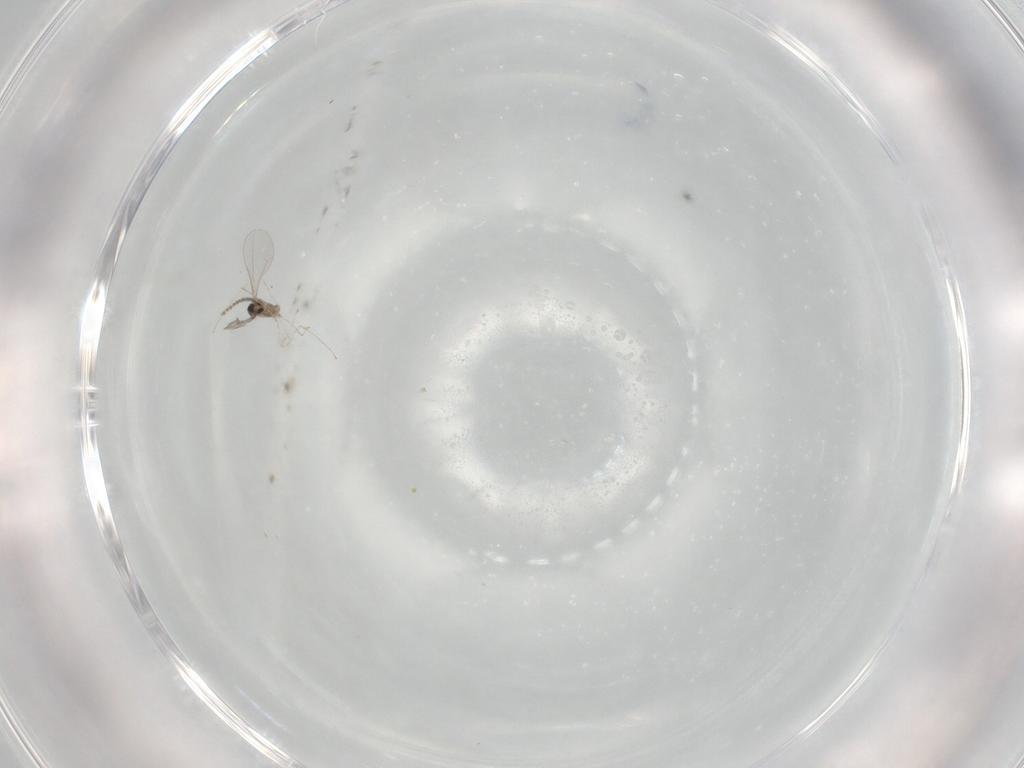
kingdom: Animalia
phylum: Arthropoda
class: Insecta
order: Diptera
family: Cecidomyiidae
